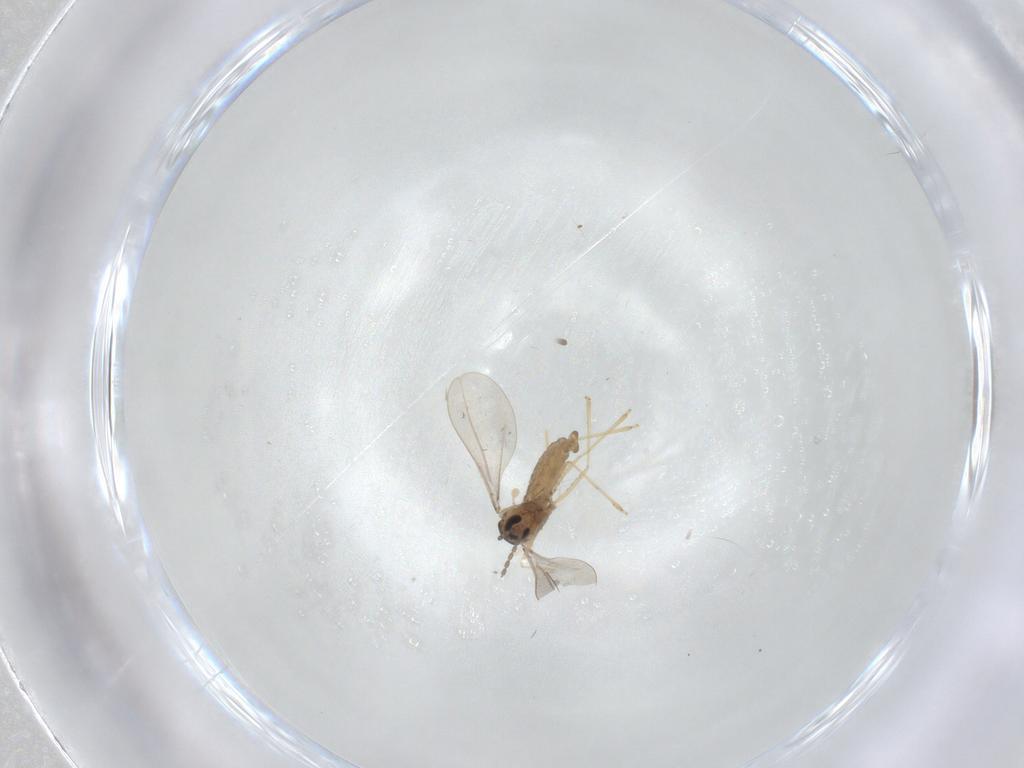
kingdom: Animalia
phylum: Arthropoda
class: Insecta
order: Diptera
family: Cecidomyiidae
